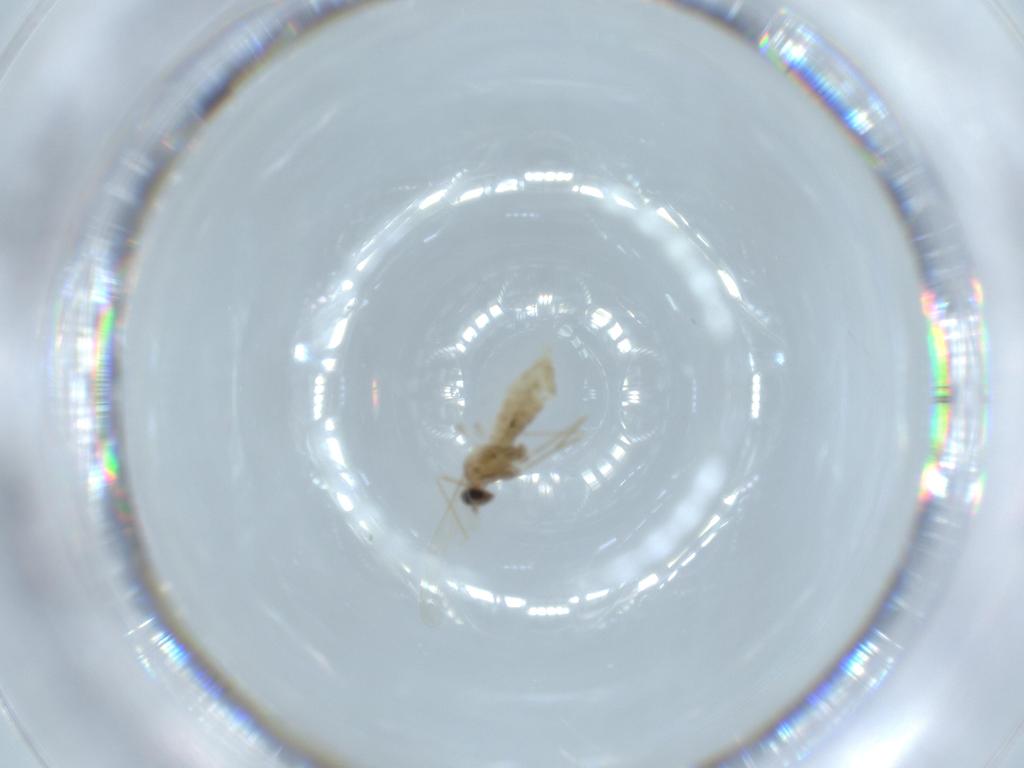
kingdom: Animalia
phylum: Arthropoda
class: Insecta
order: Diptera
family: Cecidomyiidae
